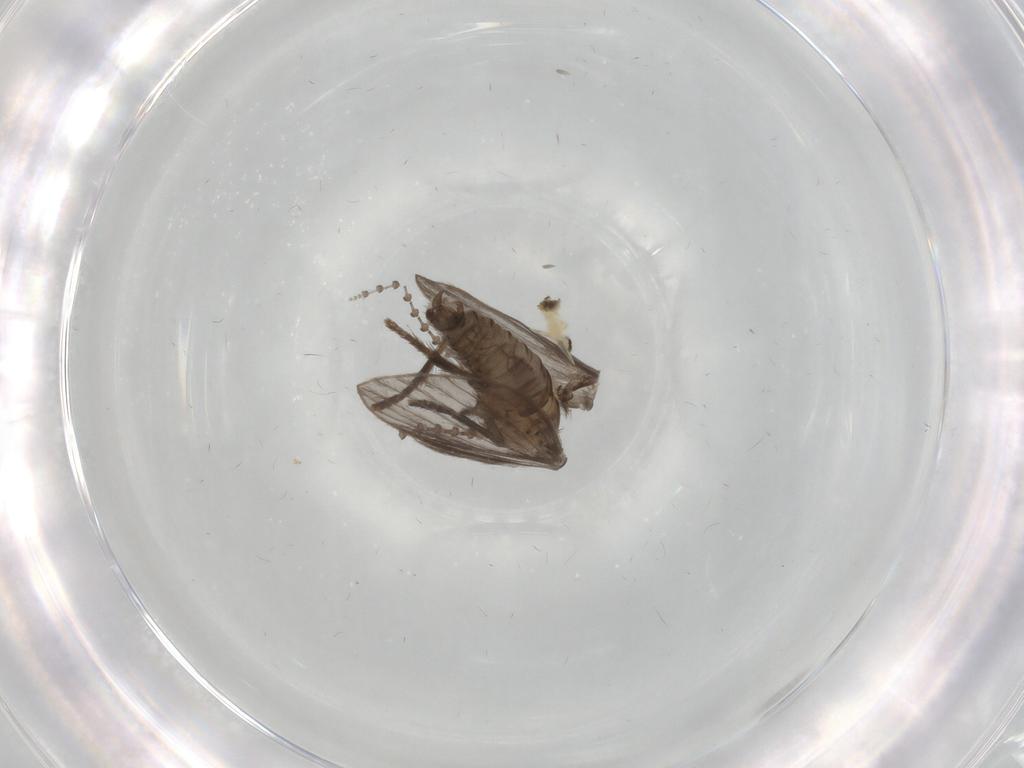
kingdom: Animalia
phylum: Arthropoda
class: Insecta
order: Diptera
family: Psychodidae
